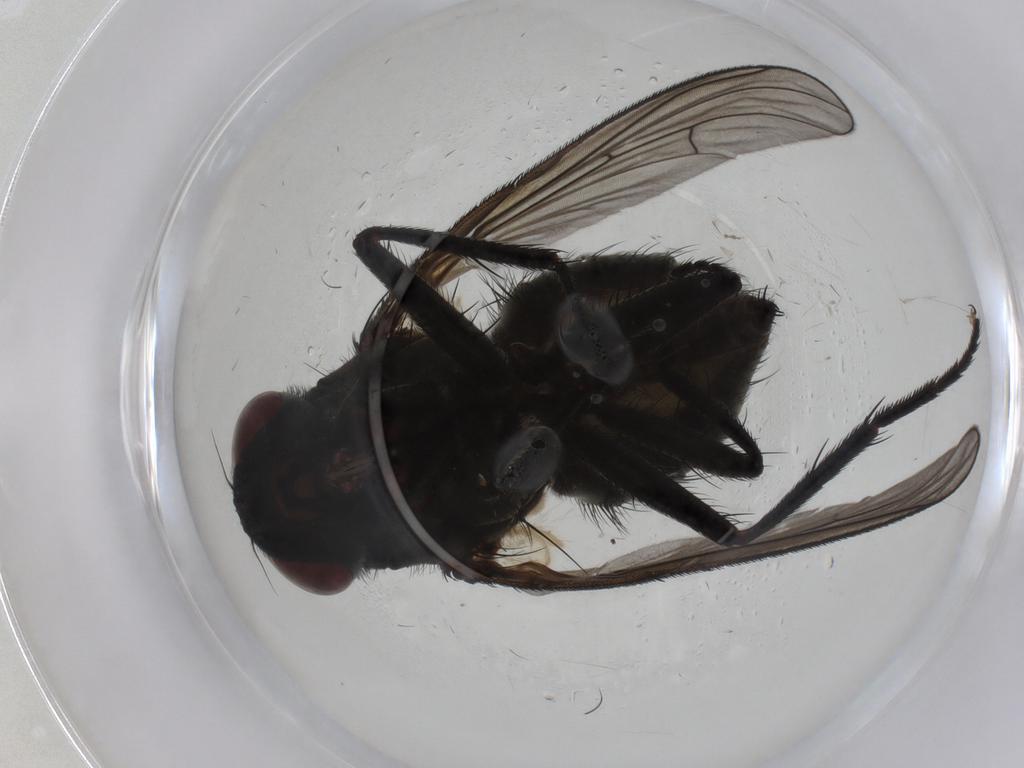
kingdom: Animalia
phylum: Arthropoda
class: Insecta
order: Diptera
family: Muscidae
